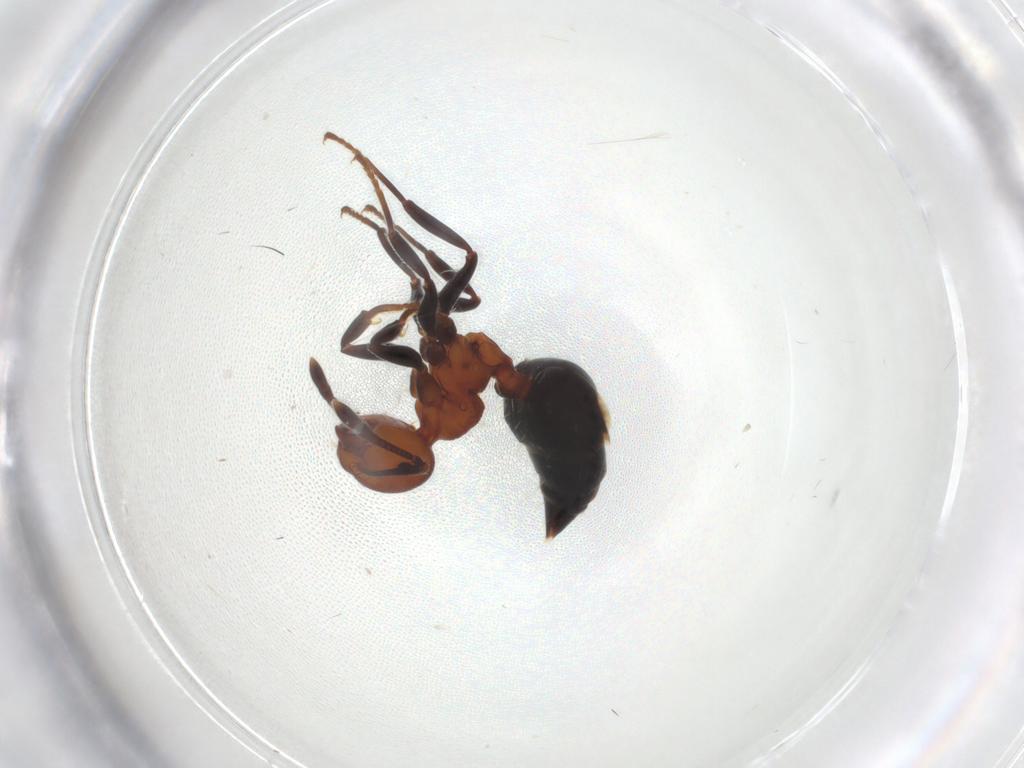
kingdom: Animalia
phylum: Arthropoda
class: Insecta
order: Hymenoptera
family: Formicidae
